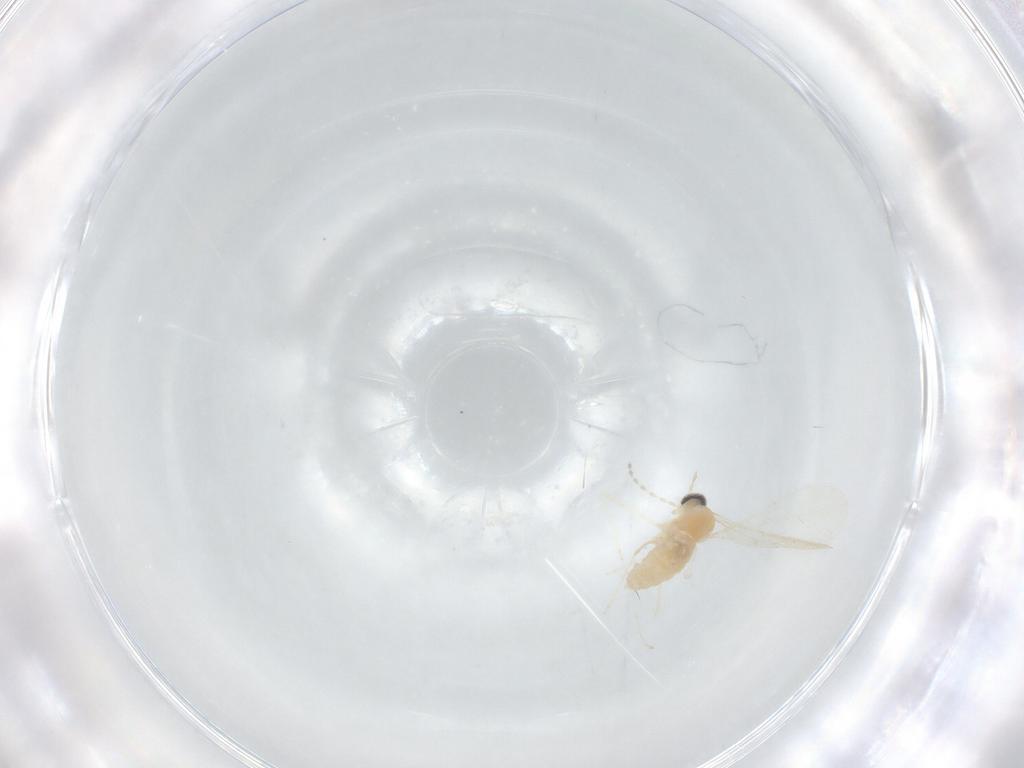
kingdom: Animalia
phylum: Arthropoda
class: Insecta
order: Diptera
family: Cecidomyiidae
